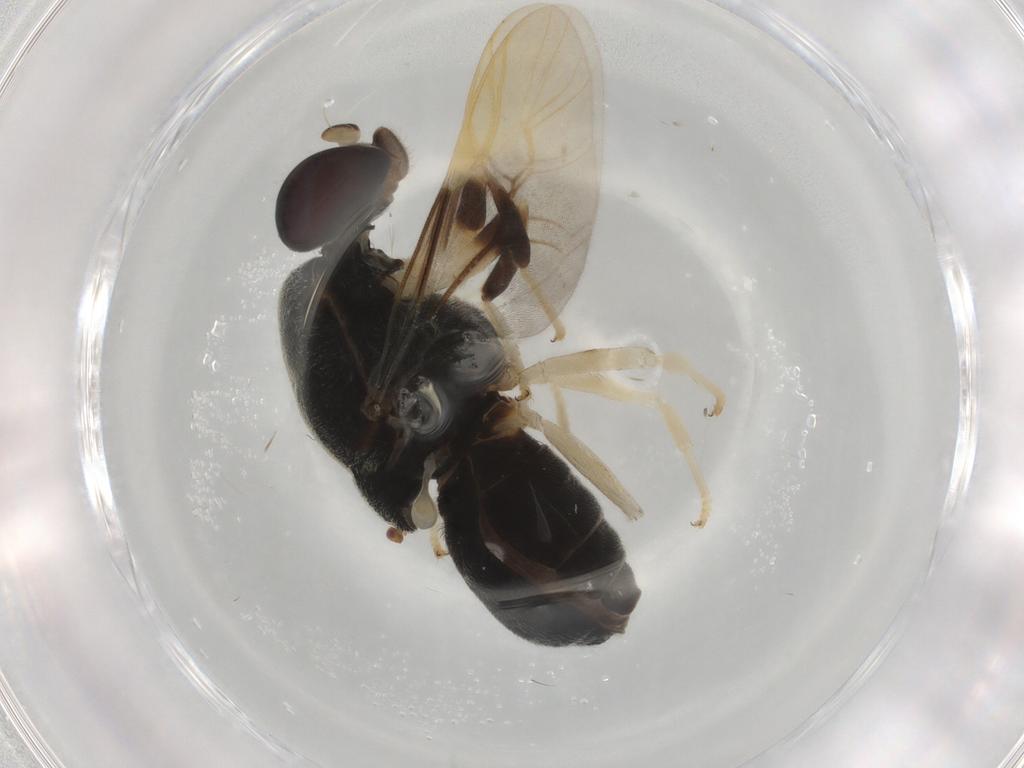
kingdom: Animalia
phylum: Arthropoda
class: Insecta
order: Diptera
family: Stratiomyidae
